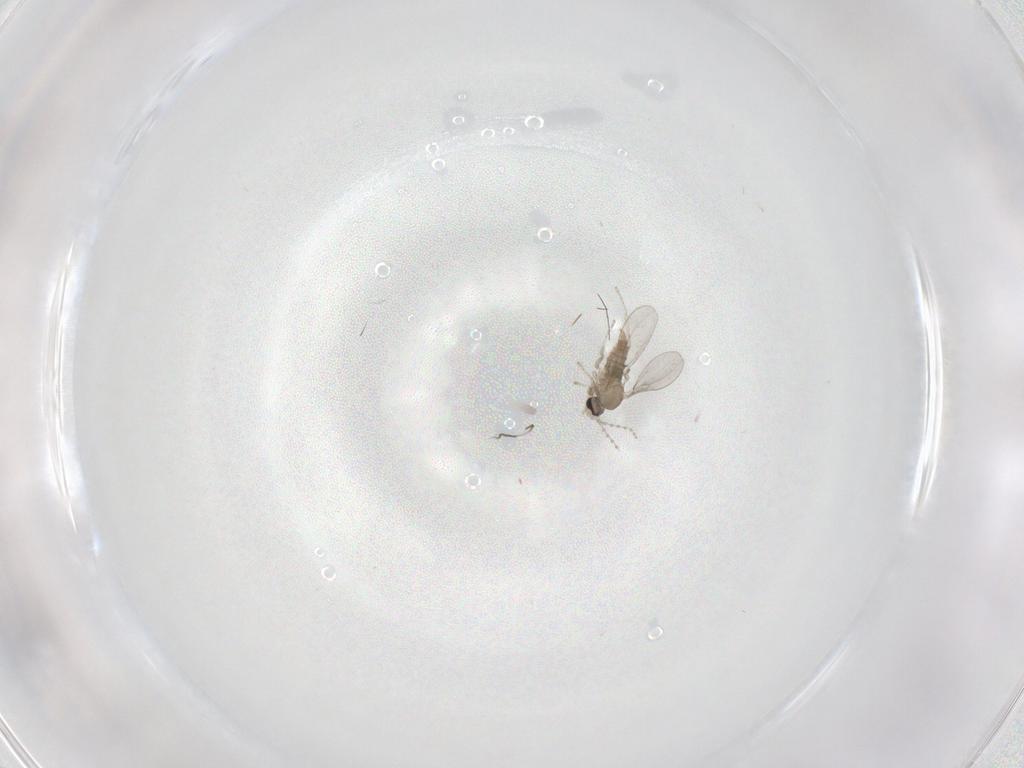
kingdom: Animalia
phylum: Arthropoda
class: Insecta
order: Diptera
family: Cecidomyiidae
